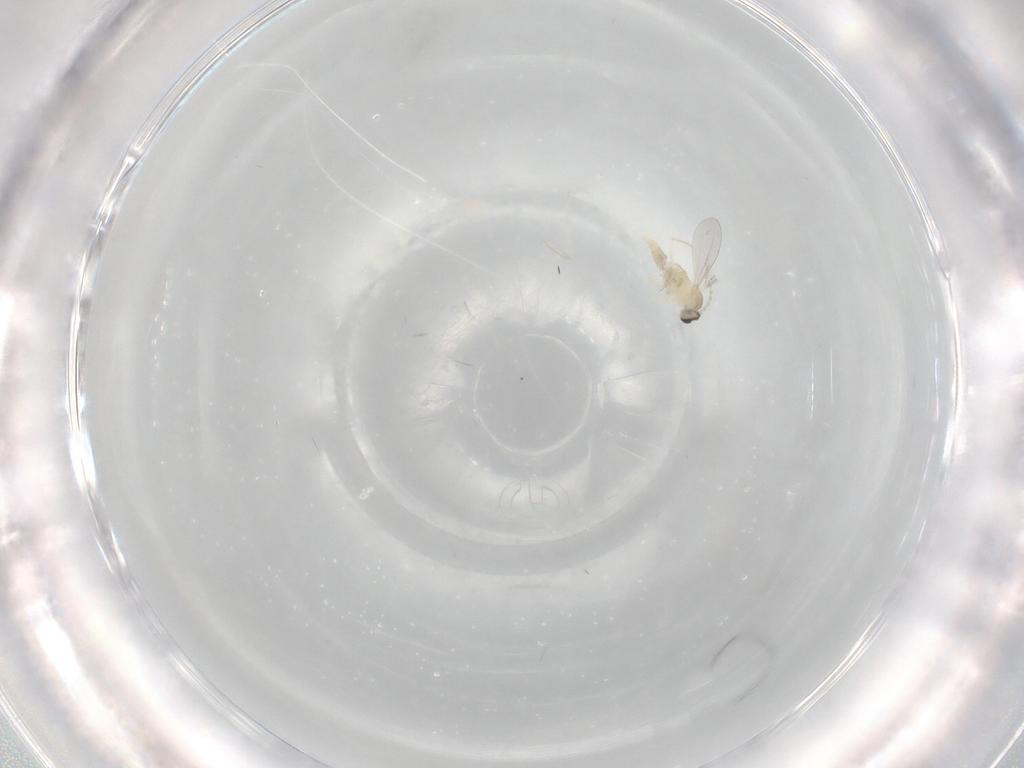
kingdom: Animalia
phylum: Arthropoda
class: Insecta
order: Diptera
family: Cecidomyiidae
